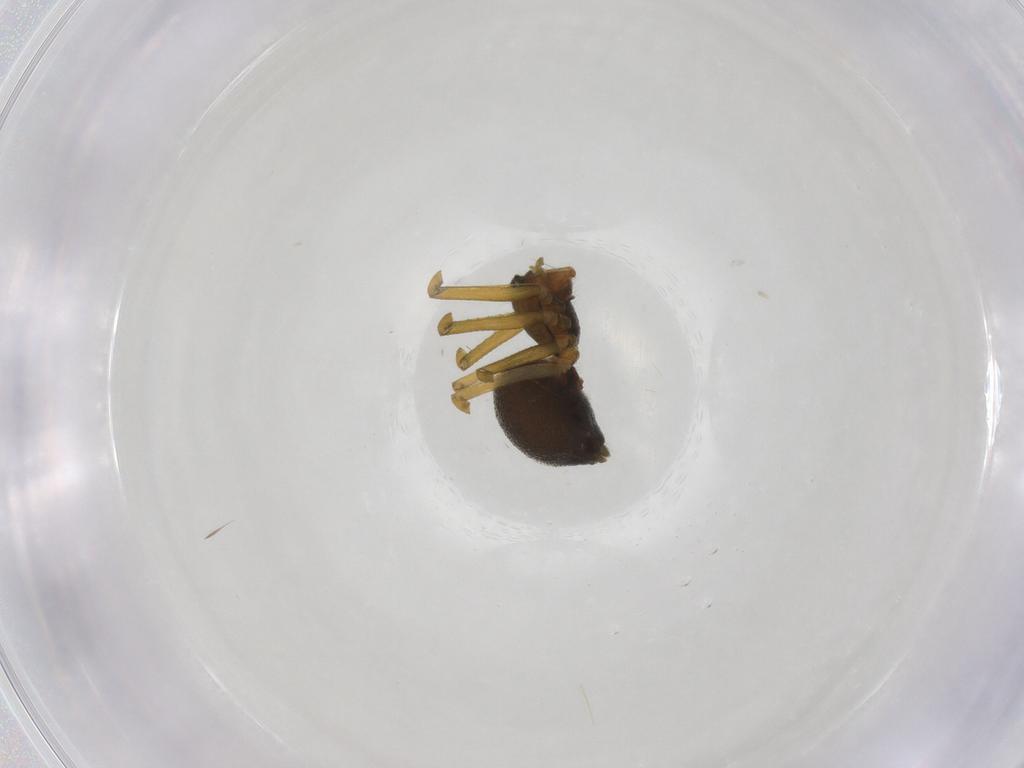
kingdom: Animalia
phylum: Arthropoda
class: Arachnida
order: Araneae
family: Linyphiidae
